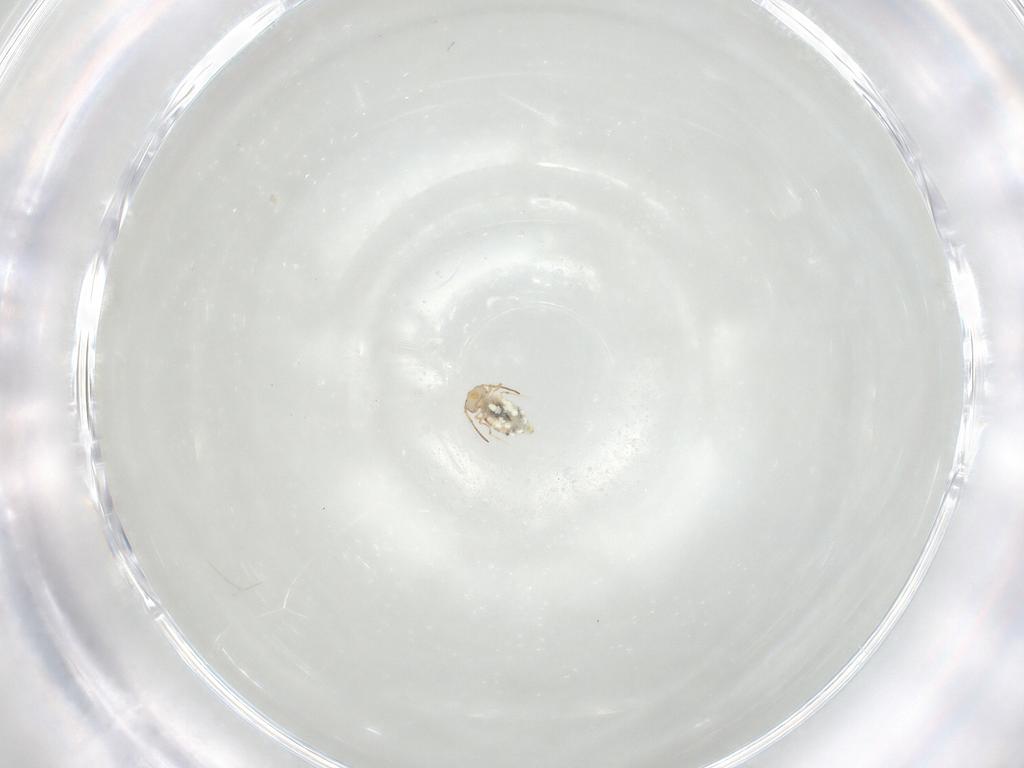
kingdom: Animalia
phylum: Arthropoda
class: Collembola
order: Symphypleona
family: Bourletiellidae
